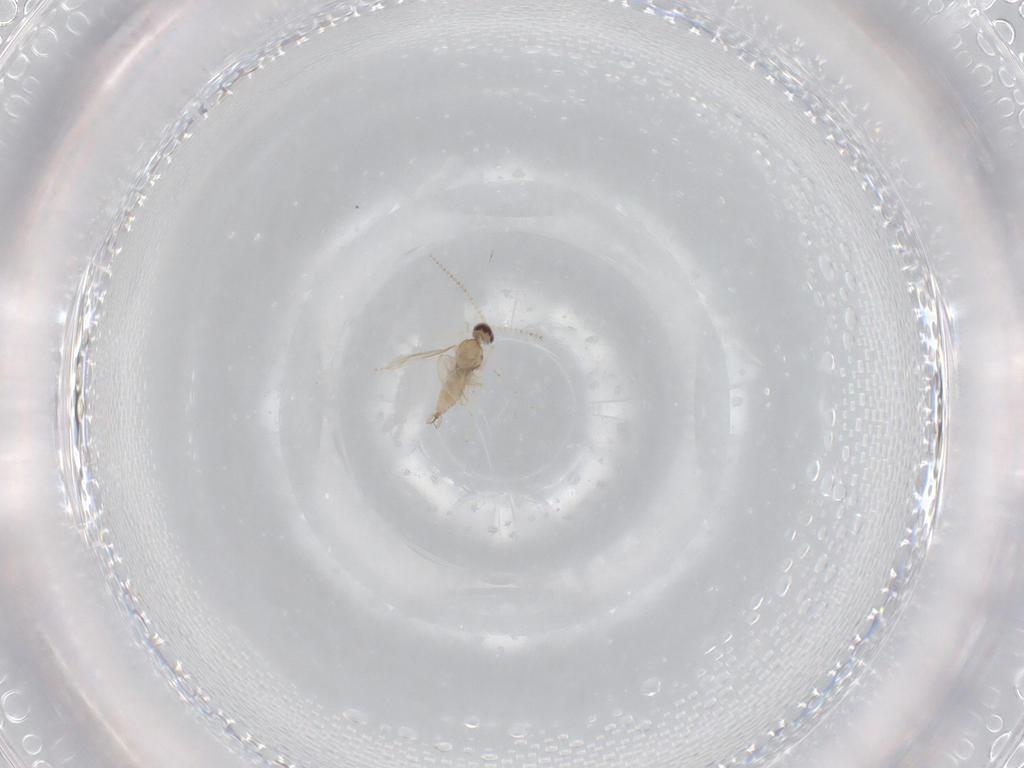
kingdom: Animalia
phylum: Arthropoda
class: Insecta
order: Diptera
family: Cecidomyiidae
